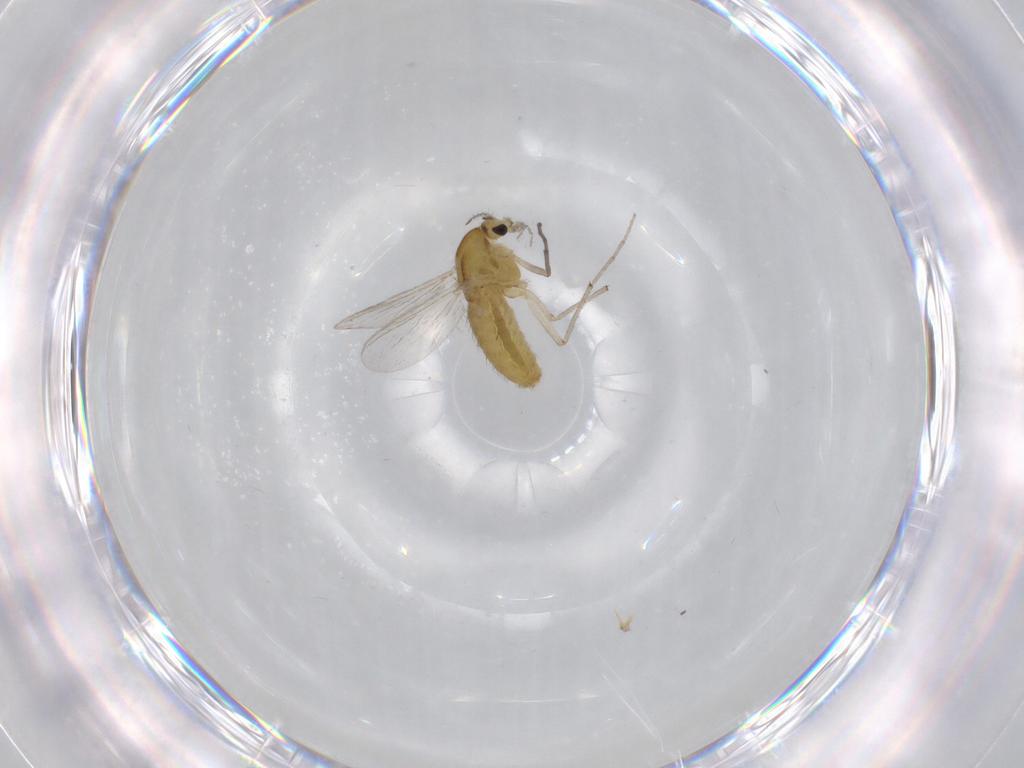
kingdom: Animalia
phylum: Arthropoda
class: Insecta
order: Diptera
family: Chironomidae
